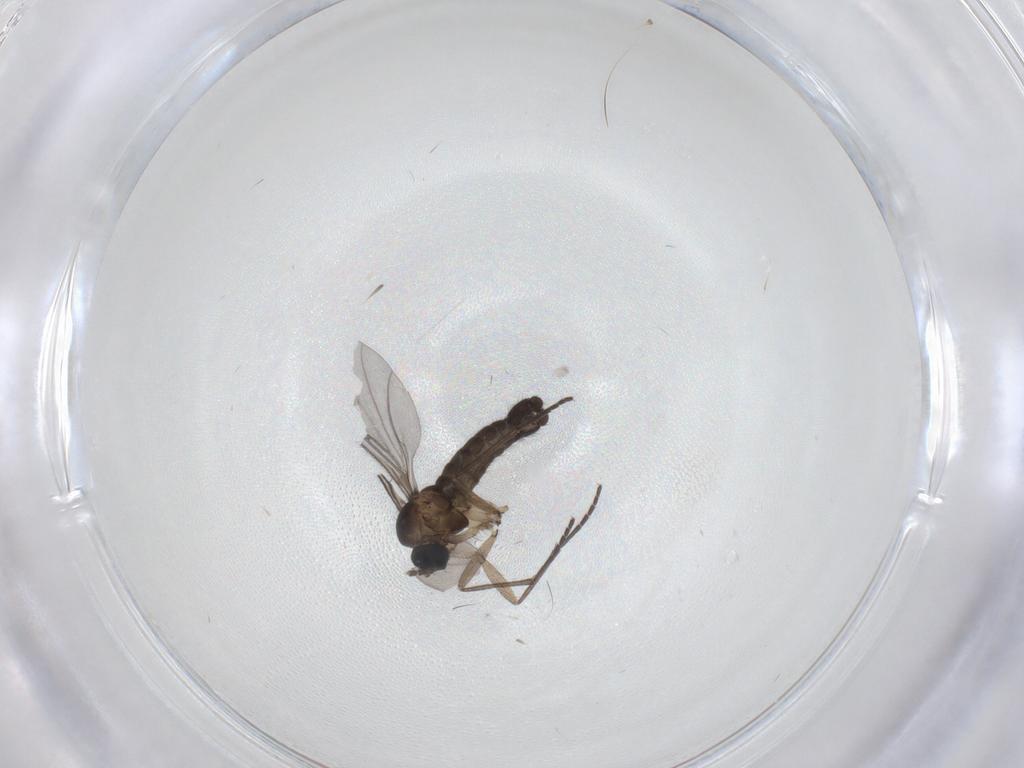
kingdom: Animalia
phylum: Arthropoda
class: Insecta
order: Diptera
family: Sciaridae
